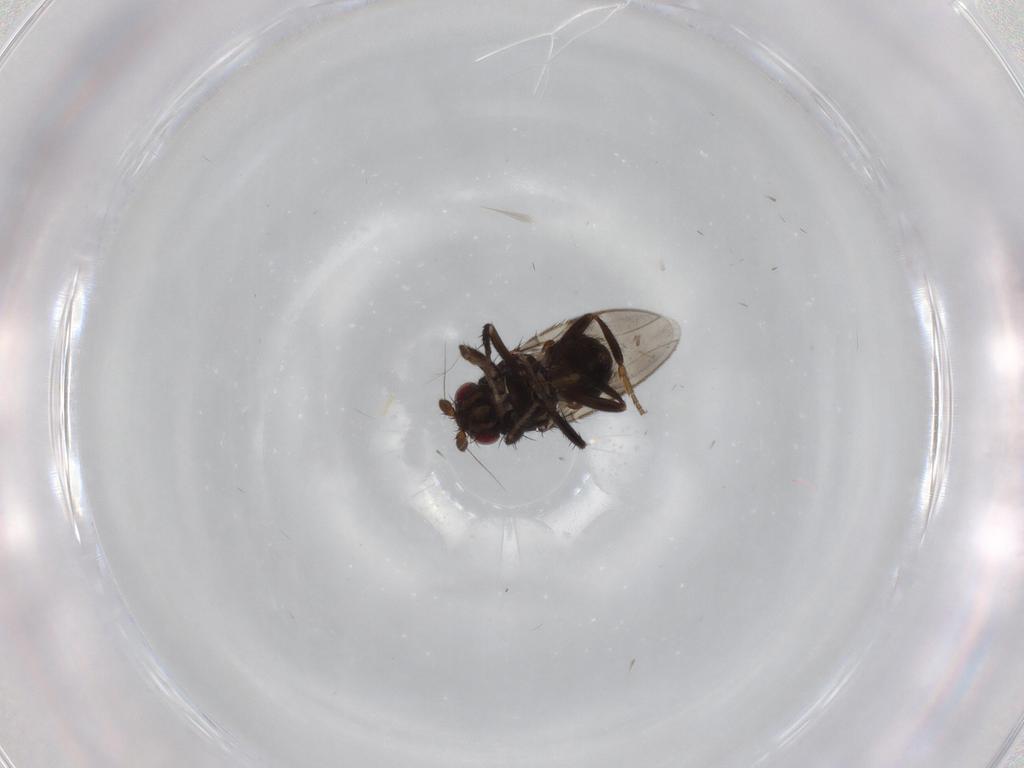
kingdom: Animalia
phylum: Arthropoda
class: Insecta
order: Diptera
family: Sphaeroceridae
